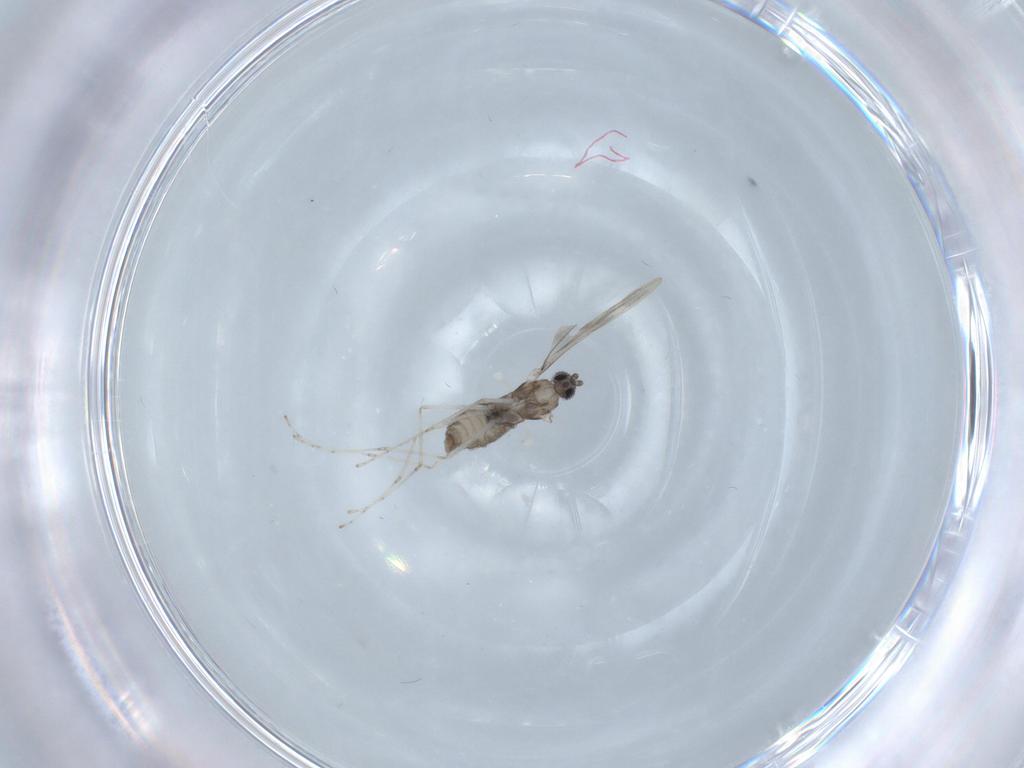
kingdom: Animalia
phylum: Arthropoda
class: Insecta
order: Diptera
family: Cecidomyiidae
